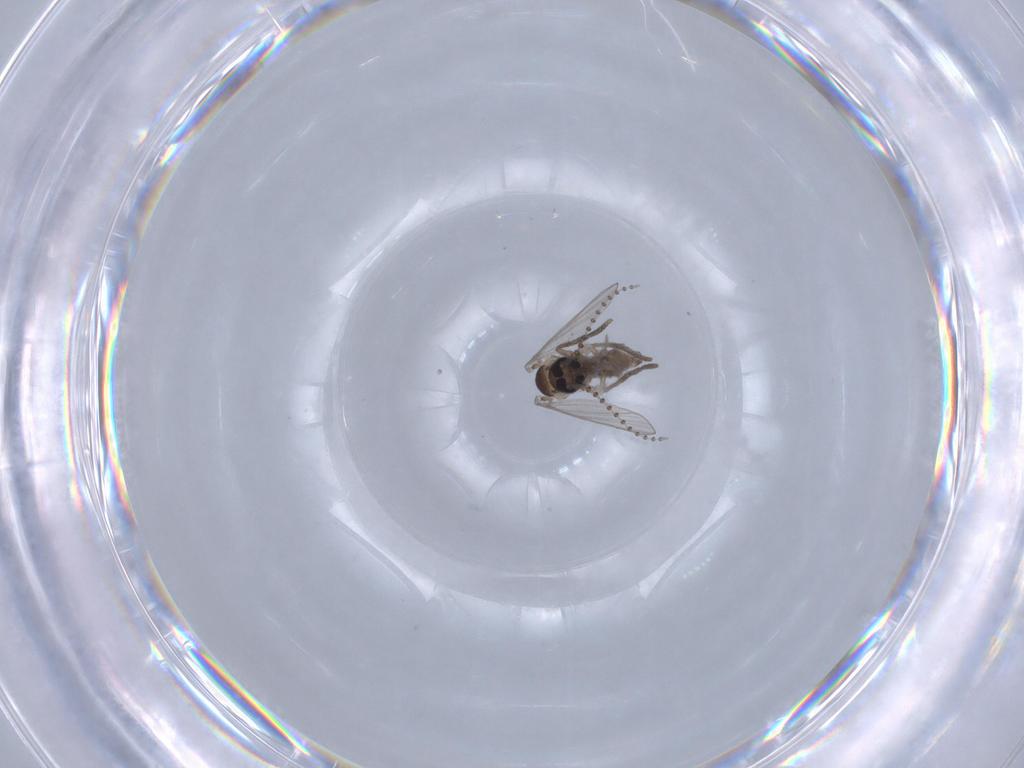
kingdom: Animalia
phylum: Arthropoda
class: Insecta
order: Diptera
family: Psychodidae
